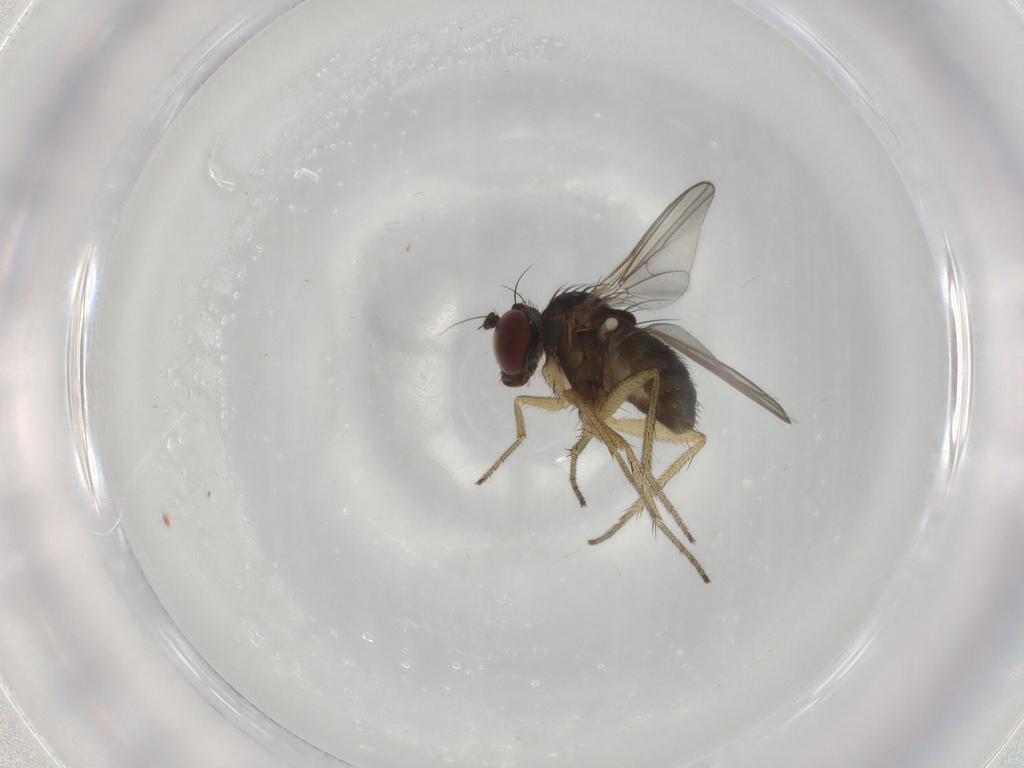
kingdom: Animalia
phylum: Arthropoda
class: Insecta
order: Diptera
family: Dolichopodidae
